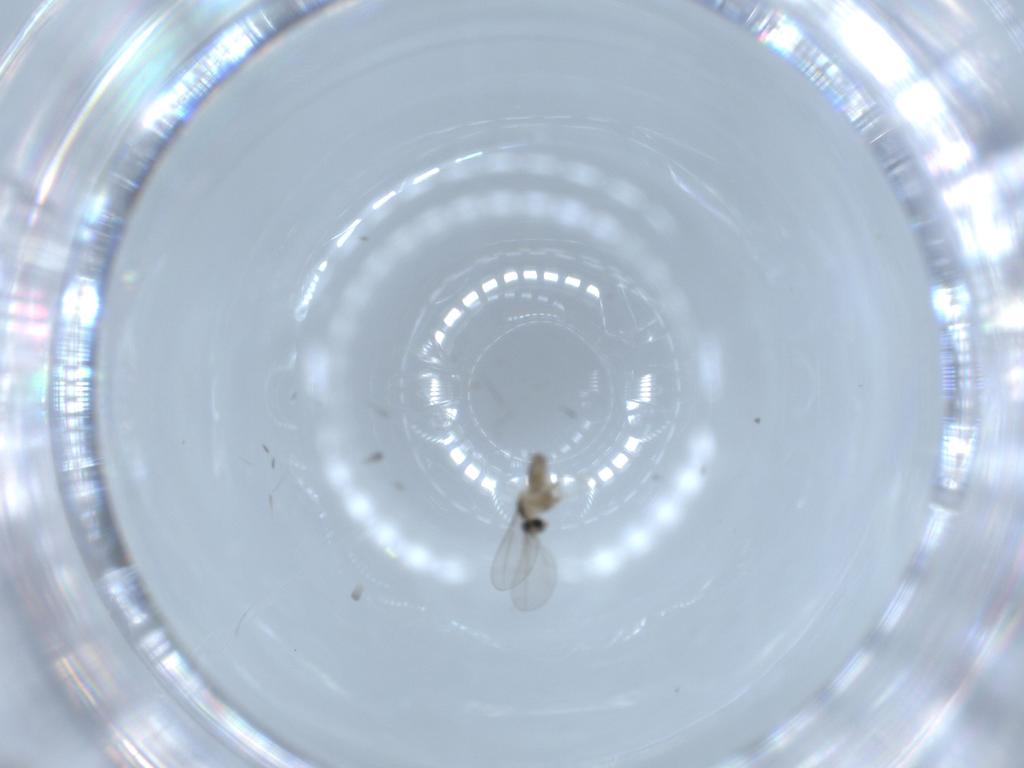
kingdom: Animalia
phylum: Arthropoda
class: Insecta
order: Diptera
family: Cecidomyiidae
